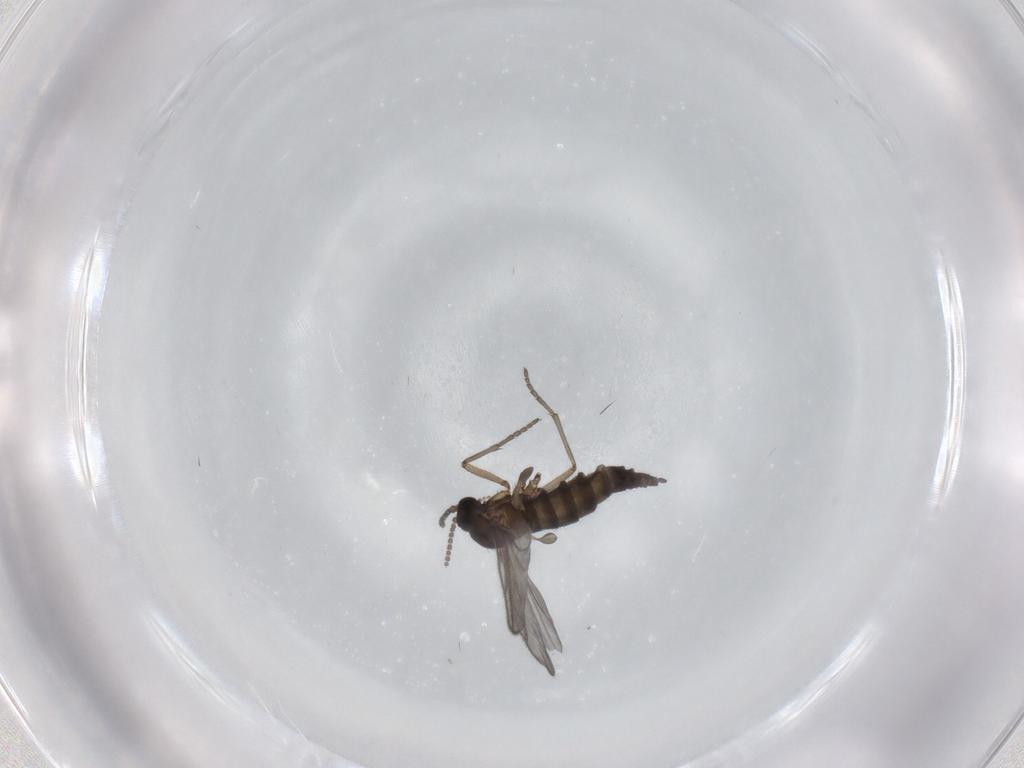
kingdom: Animalia
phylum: Arthropoda
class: Insecta
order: Diptera
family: Sciaridae
